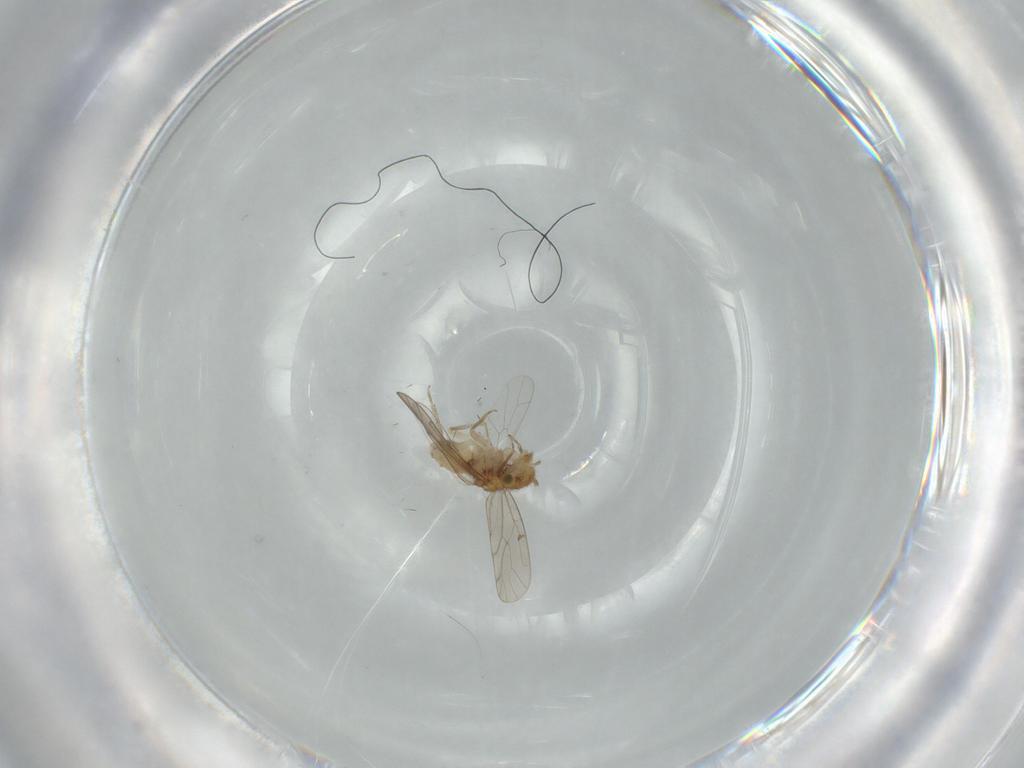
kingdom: Animalia
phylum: Arthropoda
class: Insecta
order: Psocodea
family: Ectopsocidae
